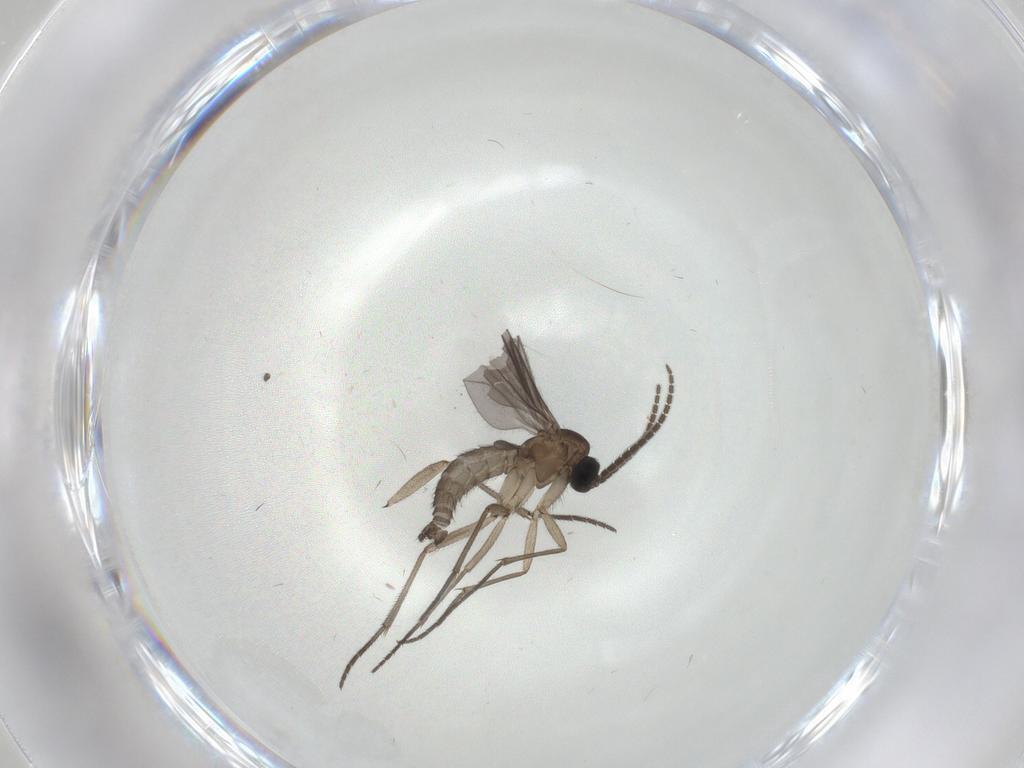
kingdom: Animalia
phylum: Arthropoda
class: Insecta
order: Diptera
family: Sciaridae
